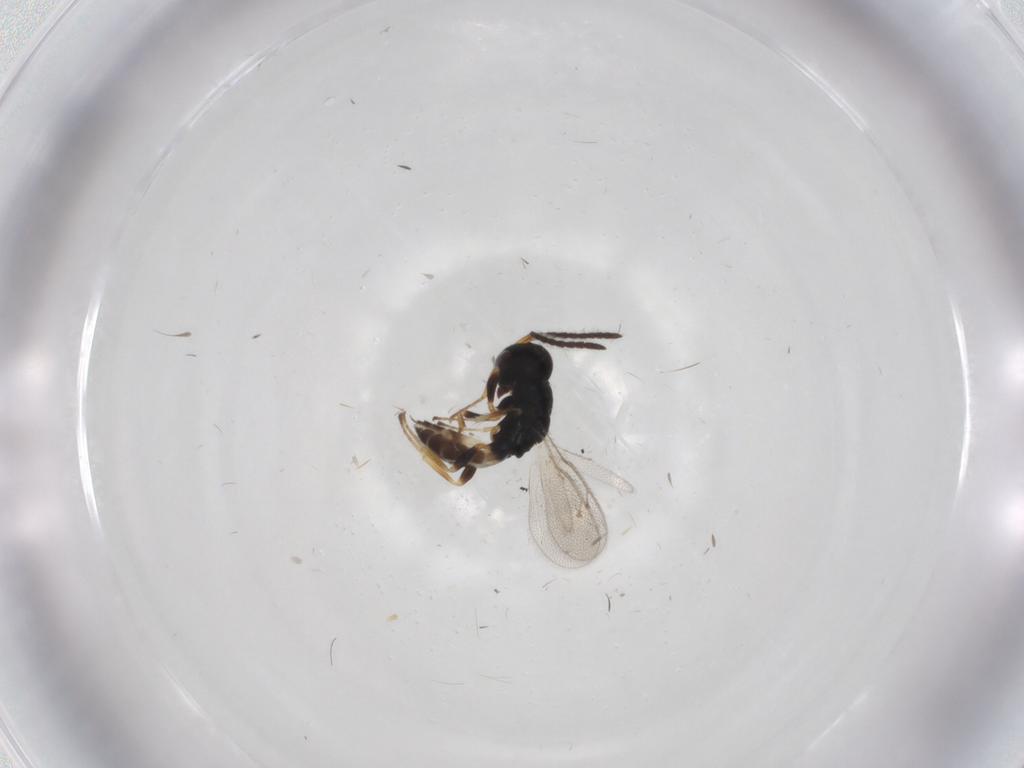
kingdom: Animalia
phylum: Arthropoda
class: Insecta
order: Hymenoptera
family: Pteromalidae
